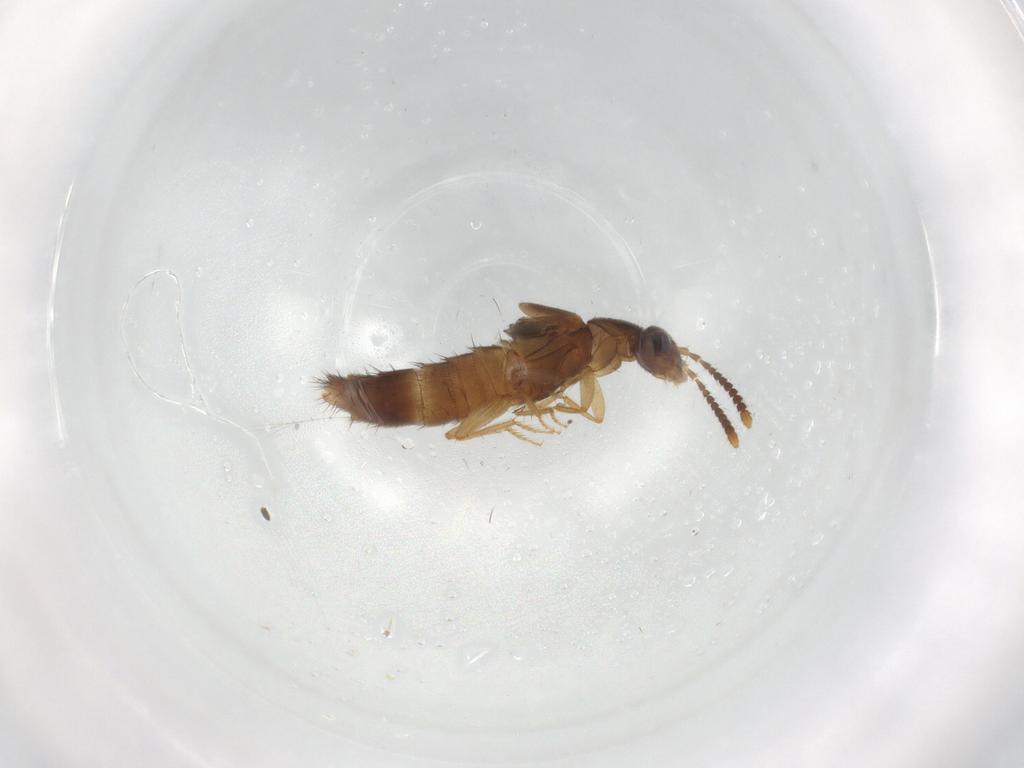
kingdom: Animalia
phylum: Arthropoda
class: Insecta
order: Coleoptera
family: Staphylinidae
